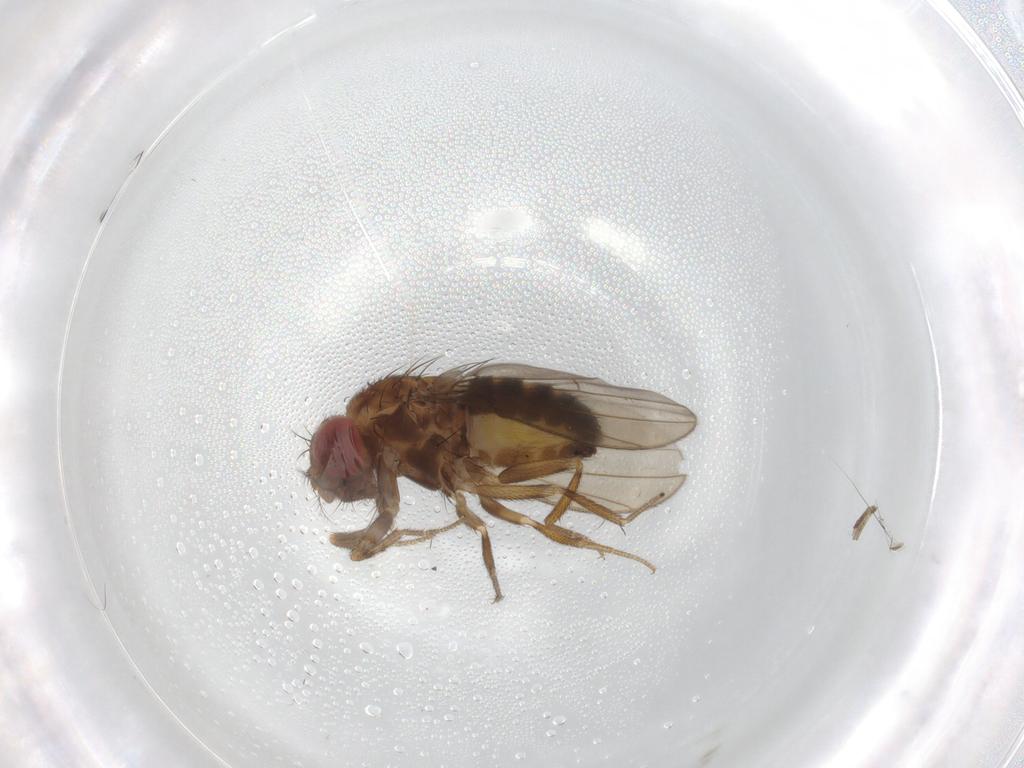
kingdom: Animalia
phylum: Arthropoda
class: Insecta
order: Diptera
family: Drosophilidae
